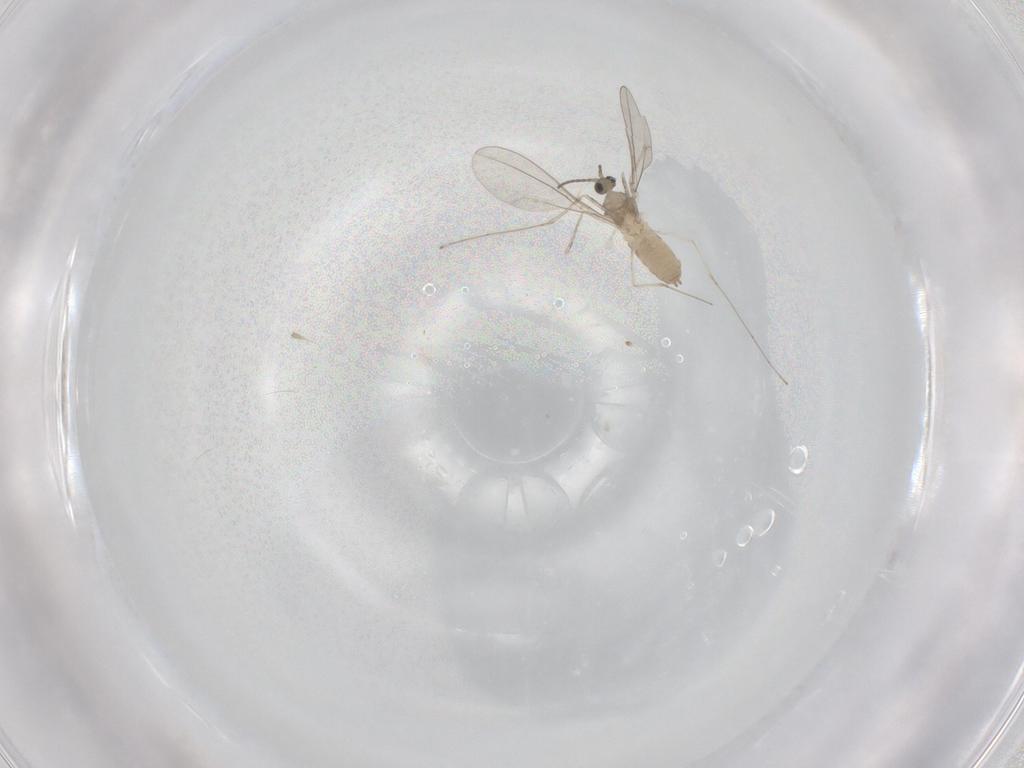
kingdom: Animalia
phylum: Arthropoda
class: Insecta
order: Diptera
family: Cecidomyiidae
